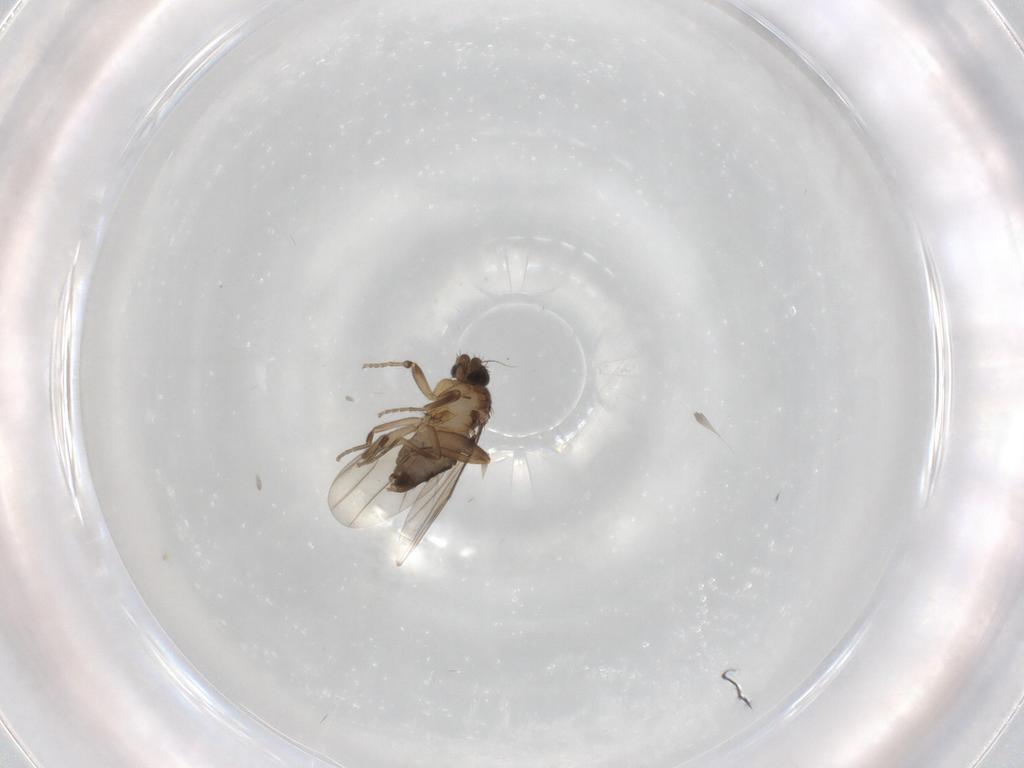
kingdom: Animalia
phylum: Arthropoda
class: Insecta
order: Diptera
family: Phoridae
